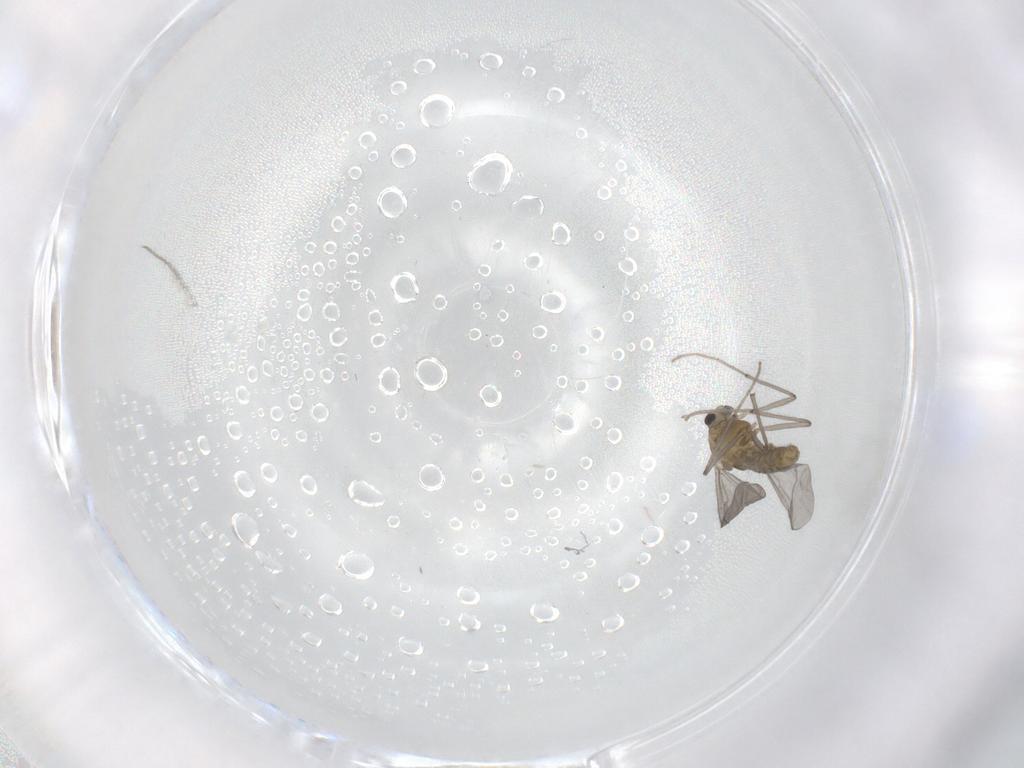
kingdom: Animalia
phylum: Arthropoda
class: Insecta
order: Diptera
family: Chironomidae
